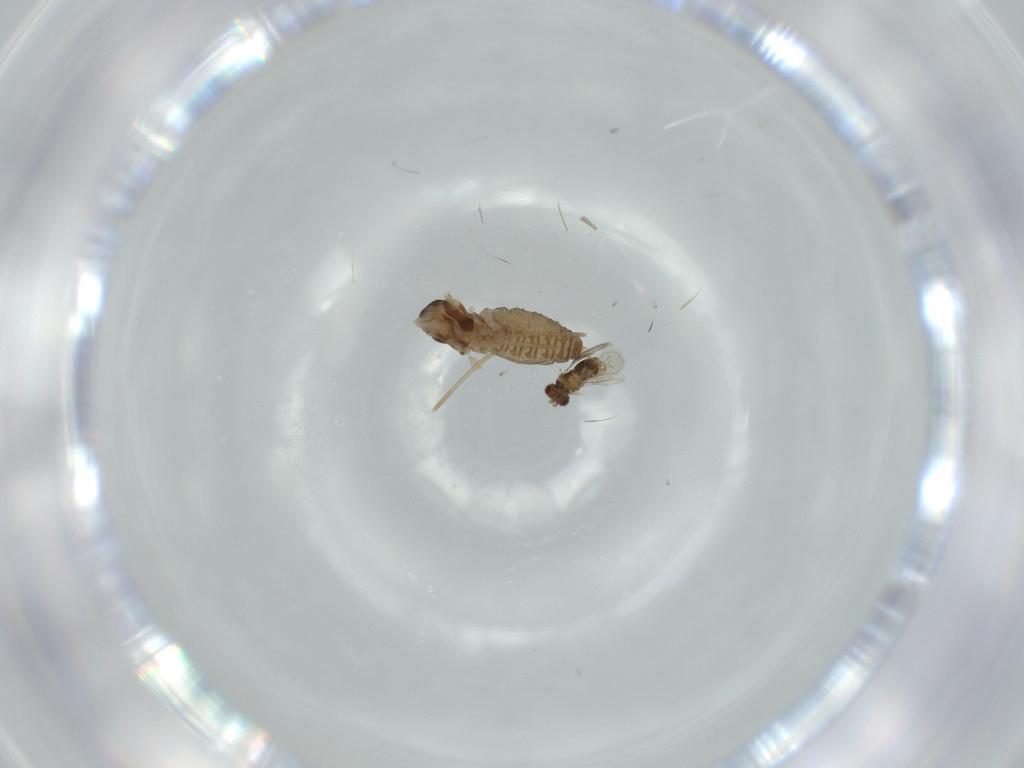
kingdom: Animalia
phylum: Arthropoda
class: Insecta
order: Diptera
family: Cecidomyiidae
